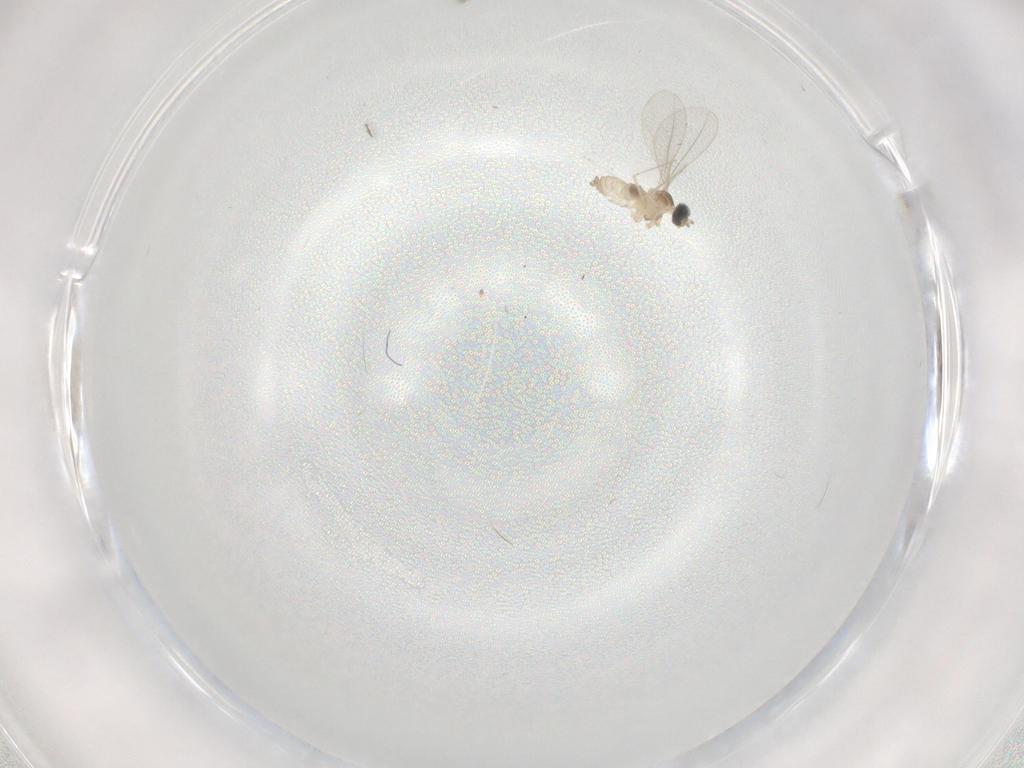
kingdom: Animalia
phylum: Arthropoda
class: Insecta
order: Diptera
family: Cecidomyiidae
